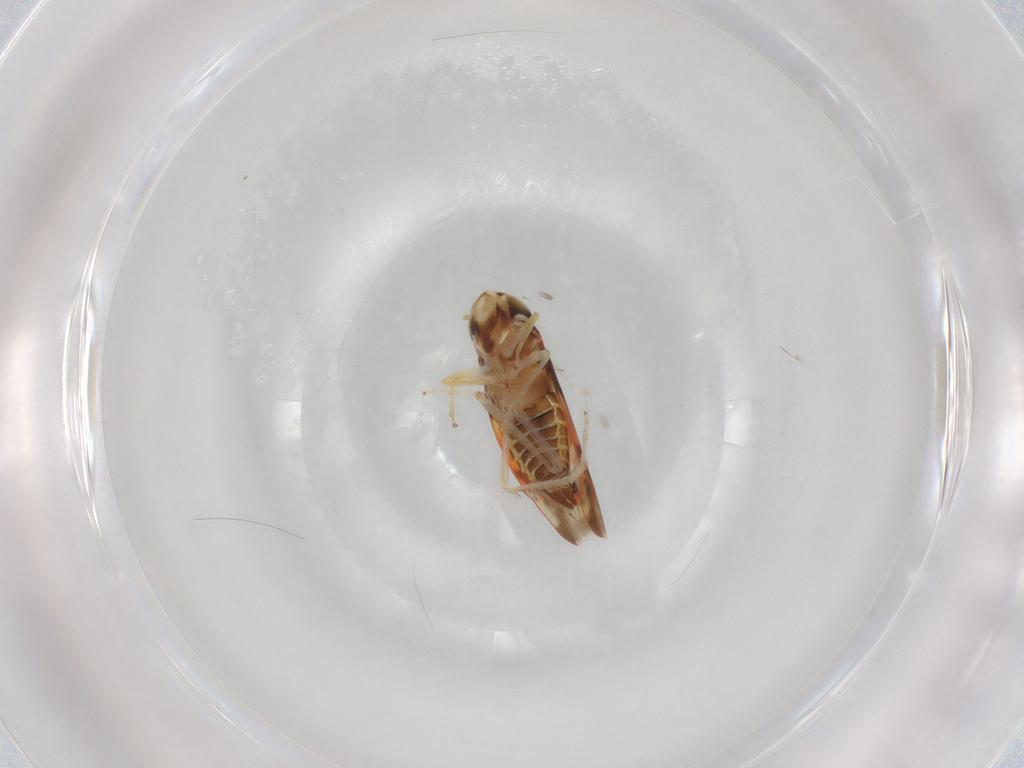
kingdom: Animalia
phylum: Arthropoda
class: Insecta
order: Hemiptera
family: Cicadellidae
